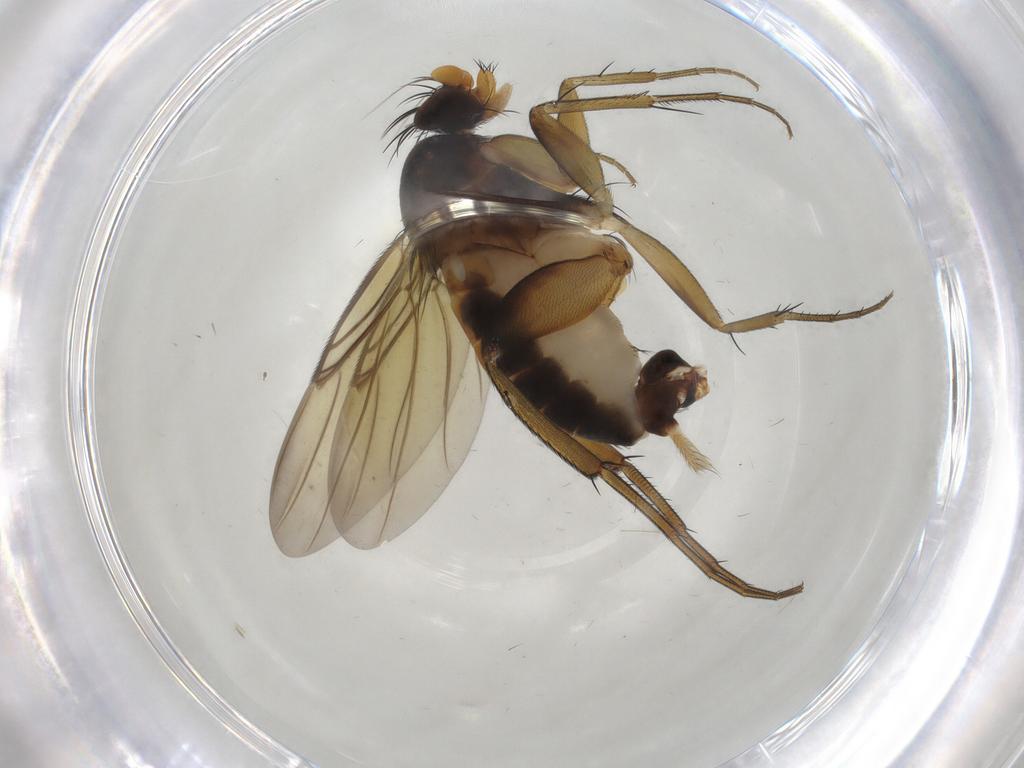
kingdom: Animalia
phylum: Arthropoda
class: Insecta
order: Diptera
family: Phoridae
